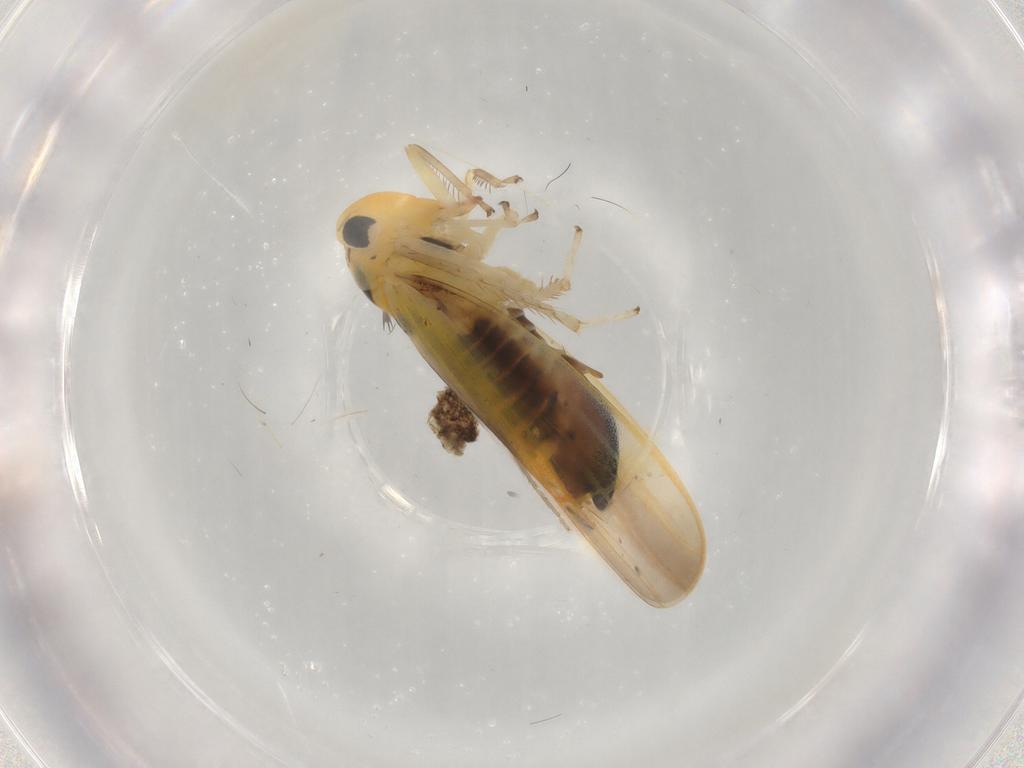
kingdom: Animalia
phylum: Arthropoda
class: Insecta
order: Hemiptera
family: Cicadellidae
